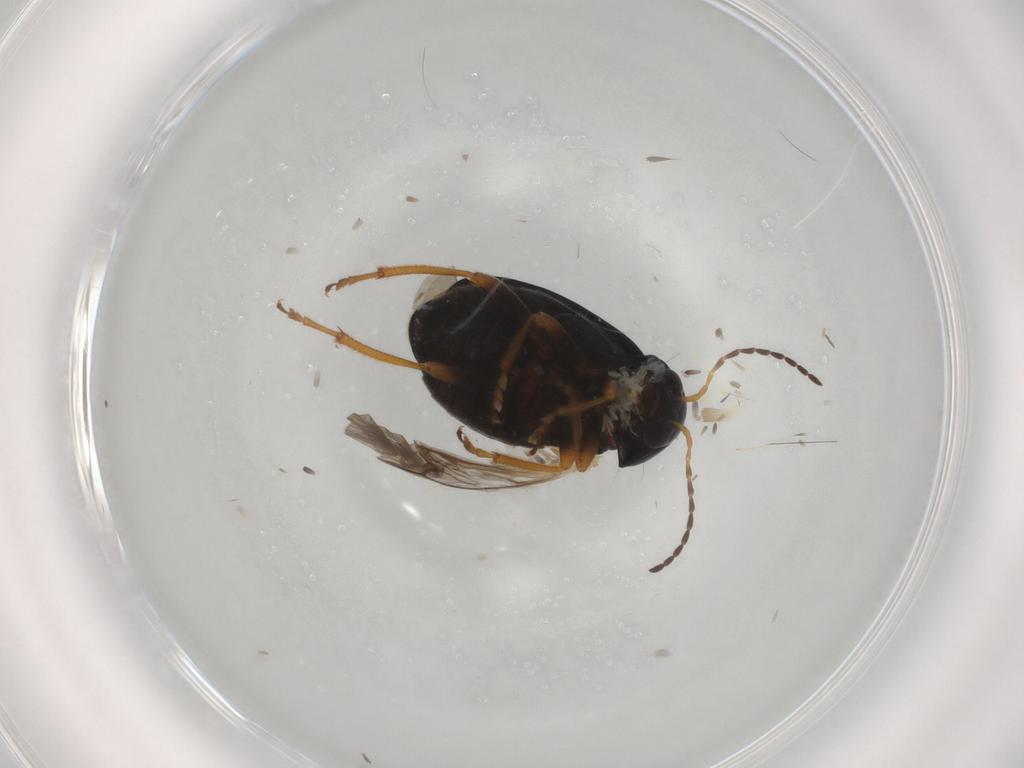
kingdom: Animalia
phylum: Arthropoda
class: Insecta
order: Coleoptera
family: Chrysomelidae
